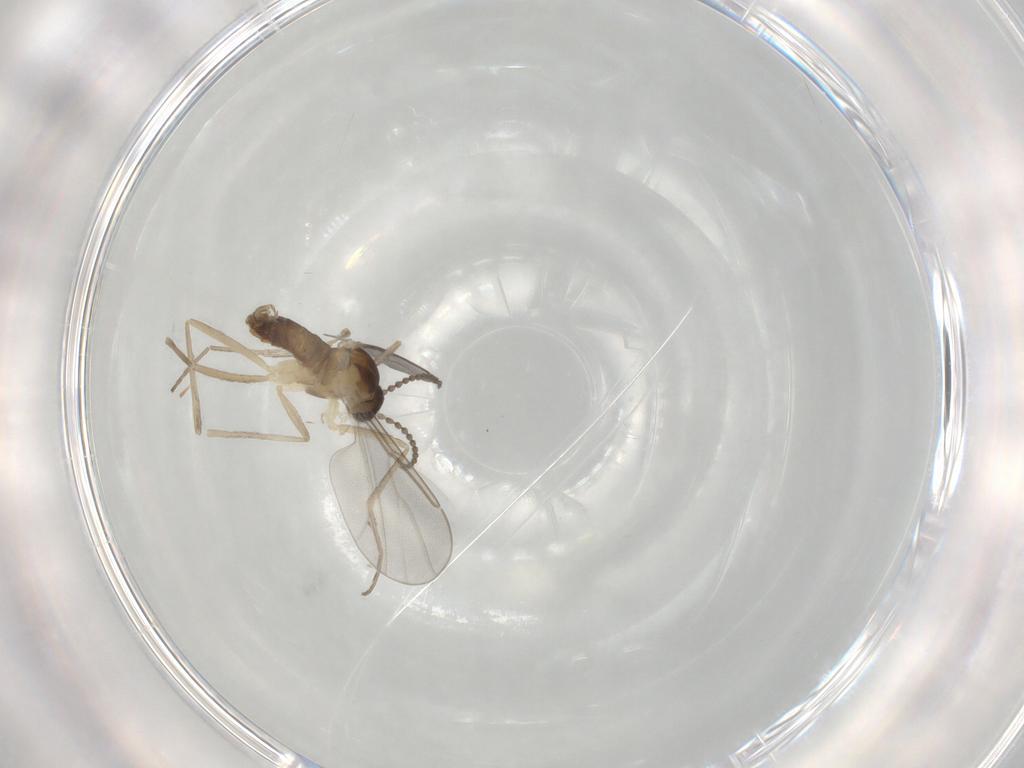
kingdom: Animalia
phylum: Arthropoda
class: Insecta
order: Diptera
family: Cecidomyiidae
